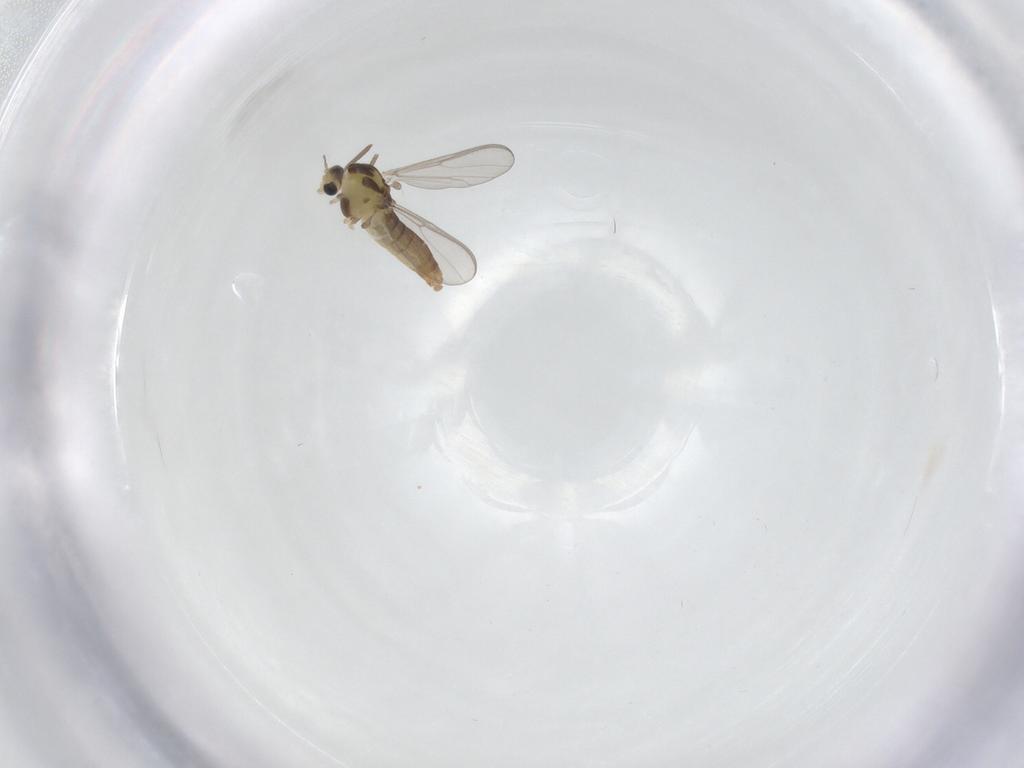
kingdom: Animalia
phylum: Arthropoda
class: Insecta
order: Diptera
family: Chironomidae
